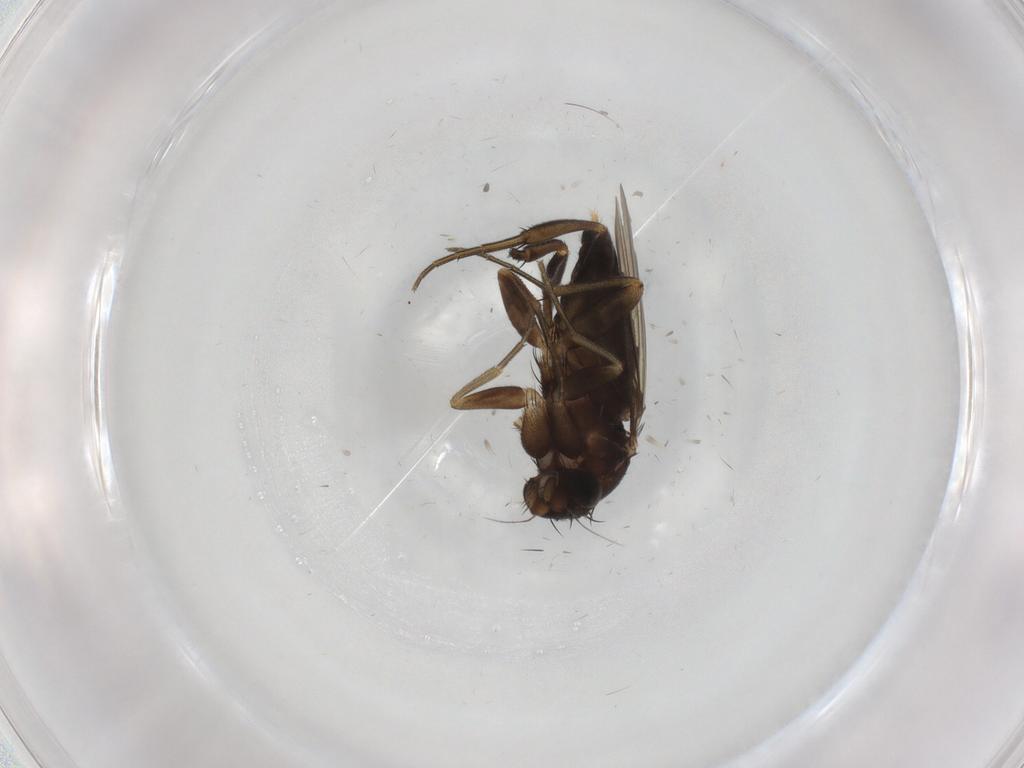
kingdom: Animalia
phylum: Arthropoda
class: Insecta
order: Diptera
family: Phoridae
